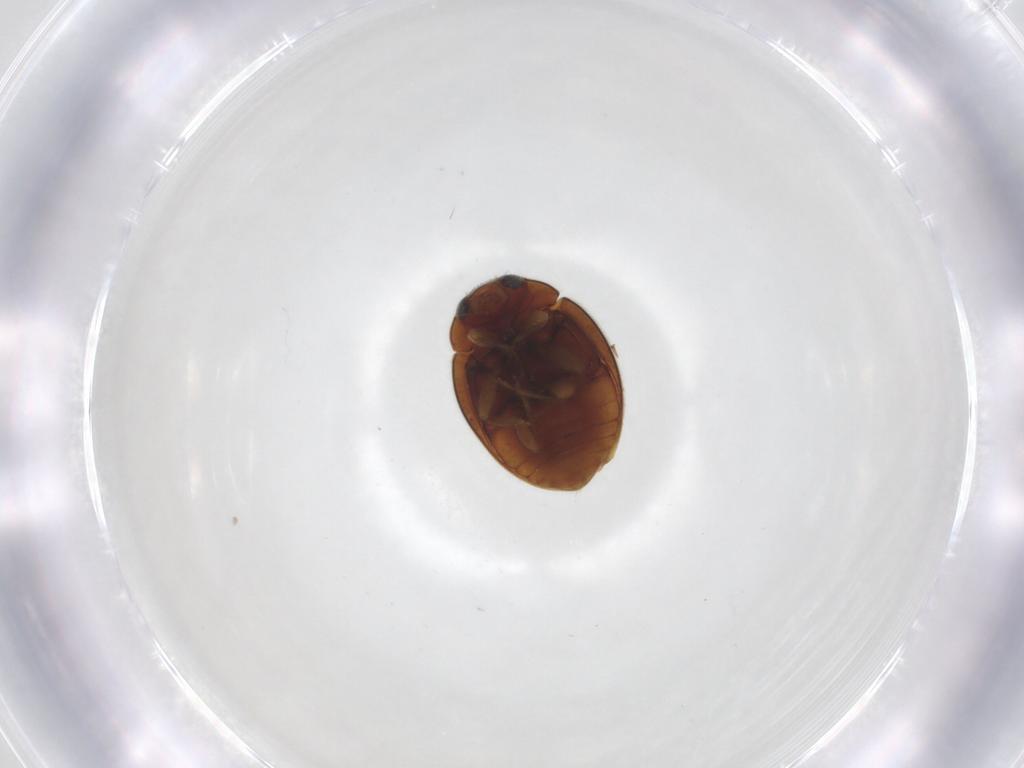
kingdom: Animalia
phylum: Arthropoda
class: Insecta
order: Coleoptera
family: Coccinellidae
